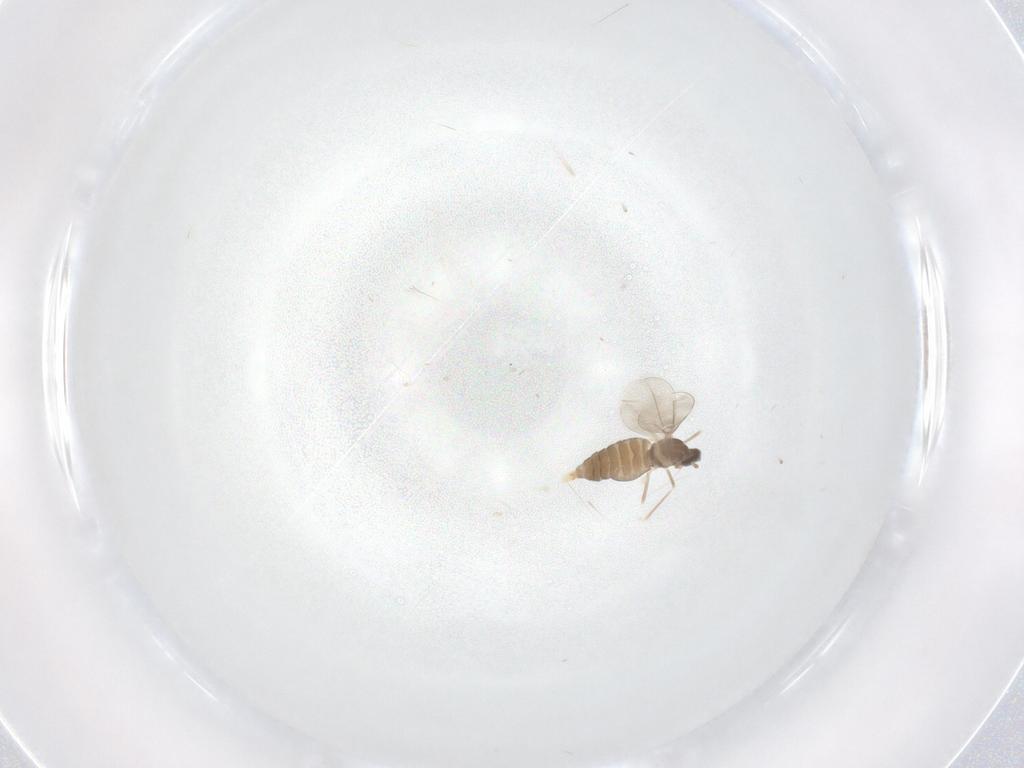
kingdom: Animalia
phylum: Arthropoda
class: Insecta
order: Diptera
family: Cecidomyiidae
